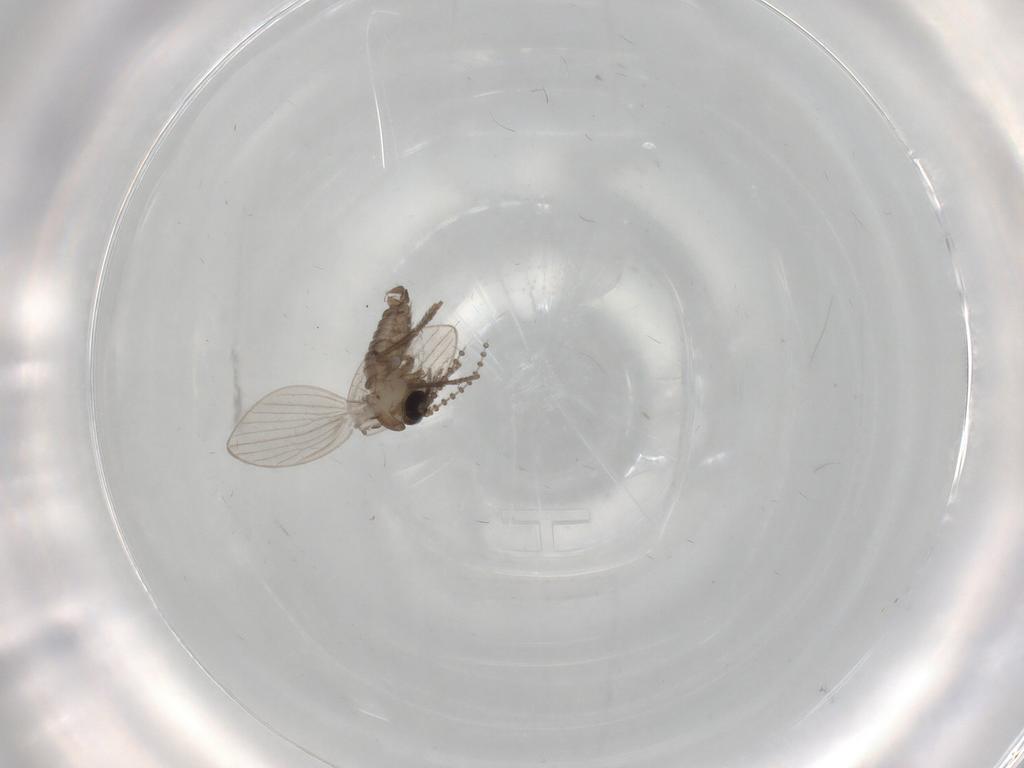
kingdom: Animalia
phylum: Arthropoda
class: Insecta
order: Diptera
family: Psychodidae
